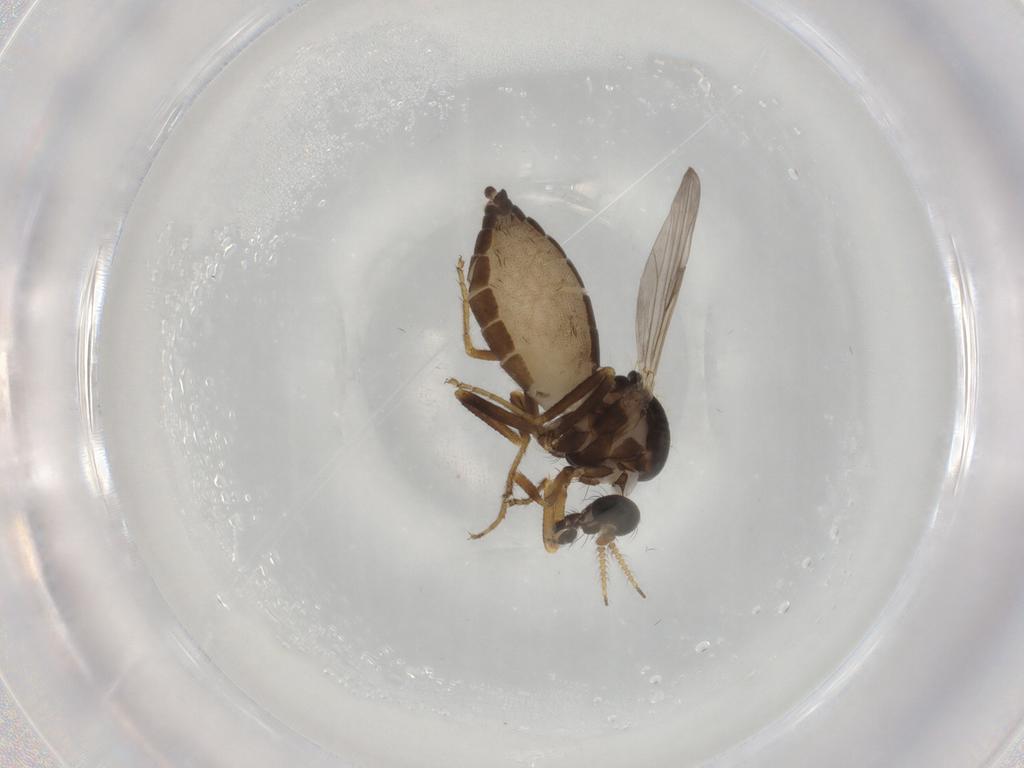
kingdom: Animalia
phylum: Arthropoda
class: Insecta
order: Diptera
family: Ceratopogonidae
